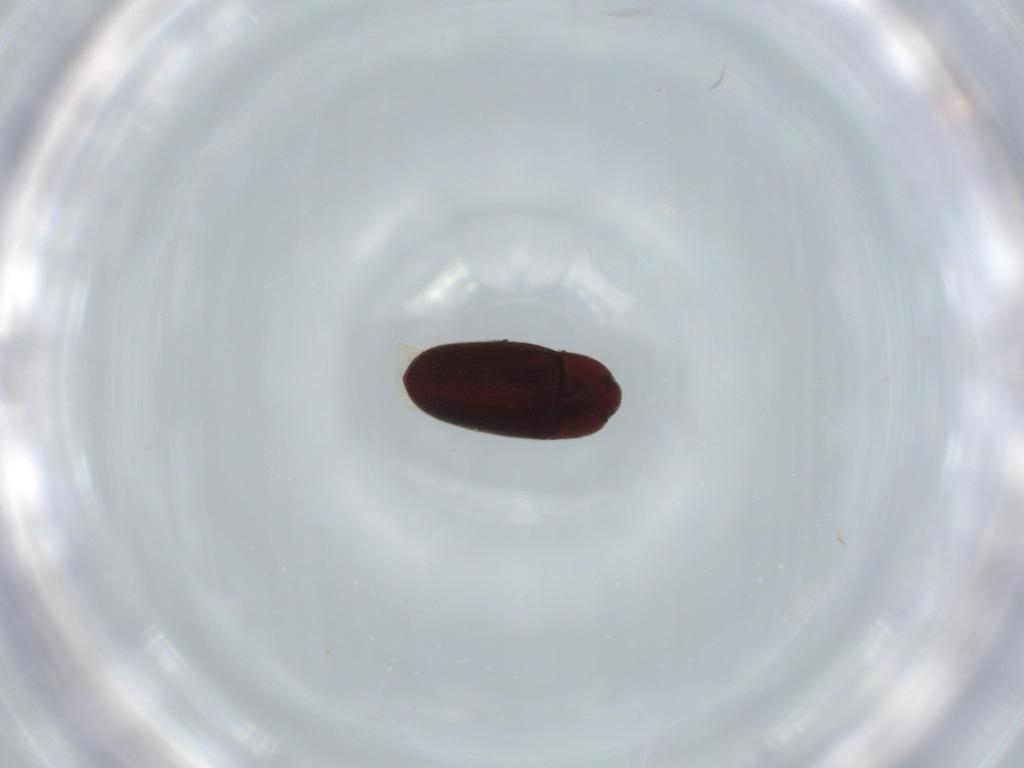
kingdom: Animalia
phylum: Arthropoda
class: Insecta
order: Coleoptera
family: Throscidae
